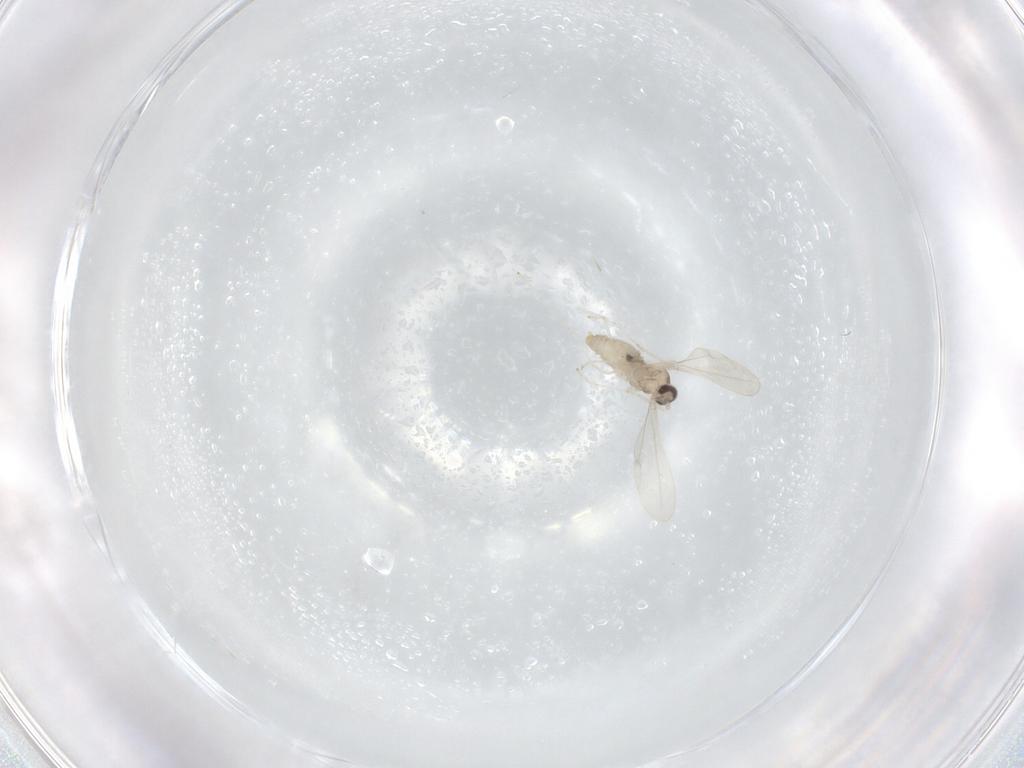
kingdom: Animalia
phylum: Arthropoda
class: Insecta
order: Diptera
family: Cecidomyiidae
